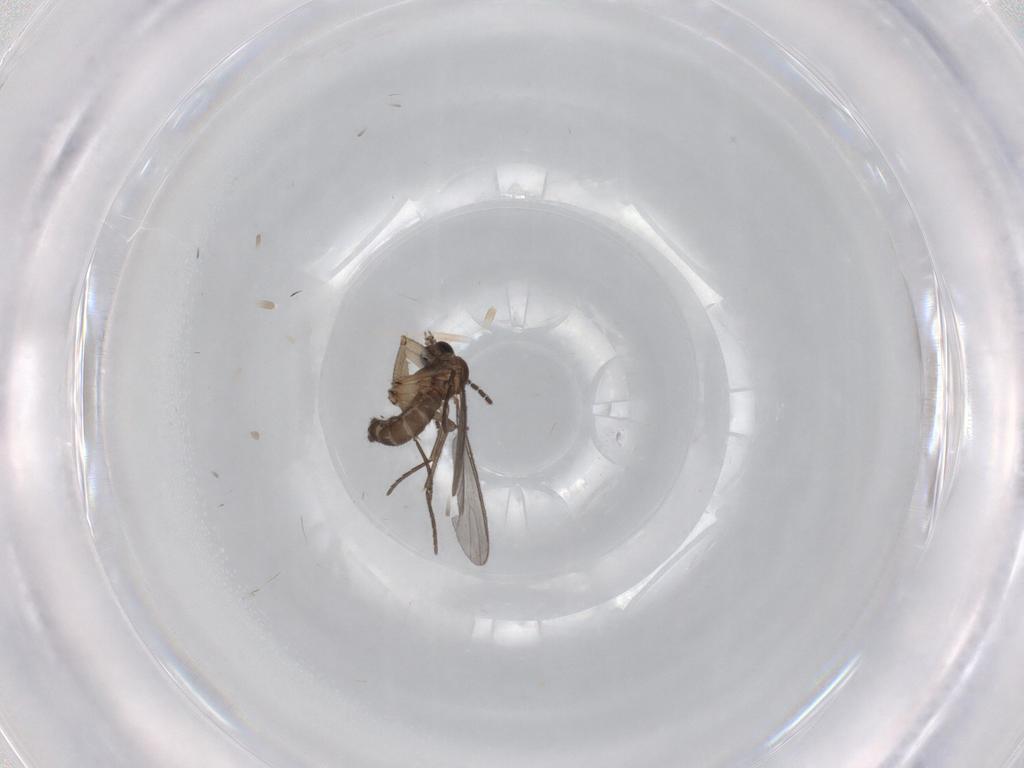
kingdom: Animalia
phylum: Arthropoda
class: Insecta
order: Diptera
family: Sciaridae
